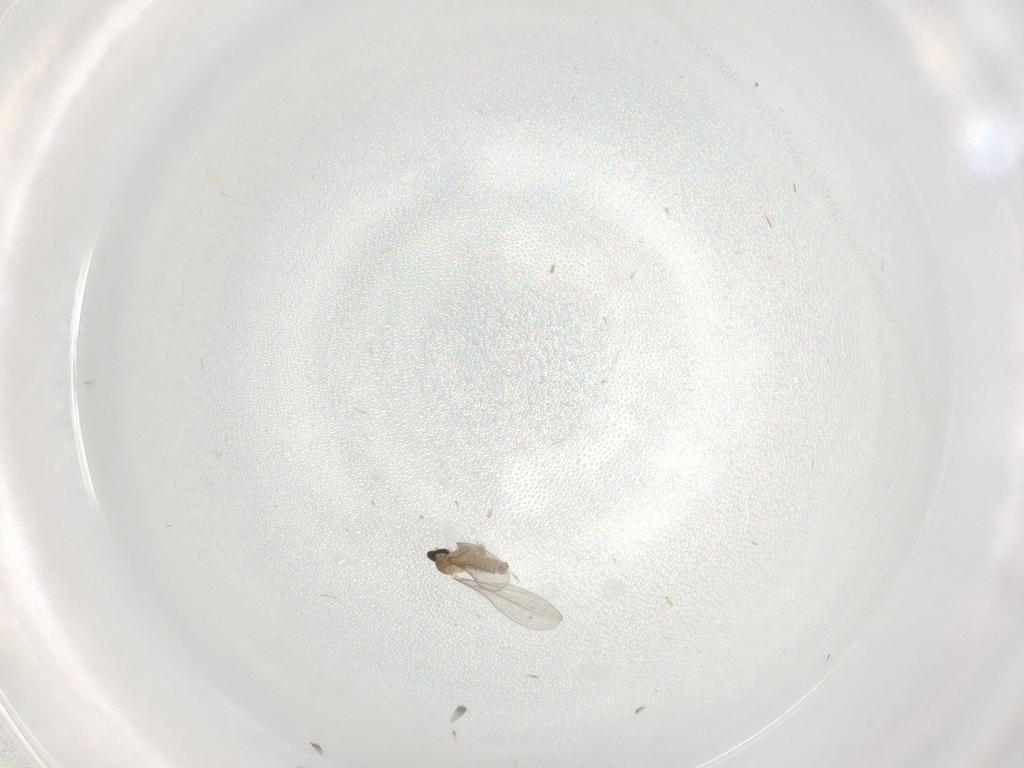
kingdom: Animalia
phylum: Arthropoda
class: Insecta
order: Diptera
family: Cecidomyiidae
